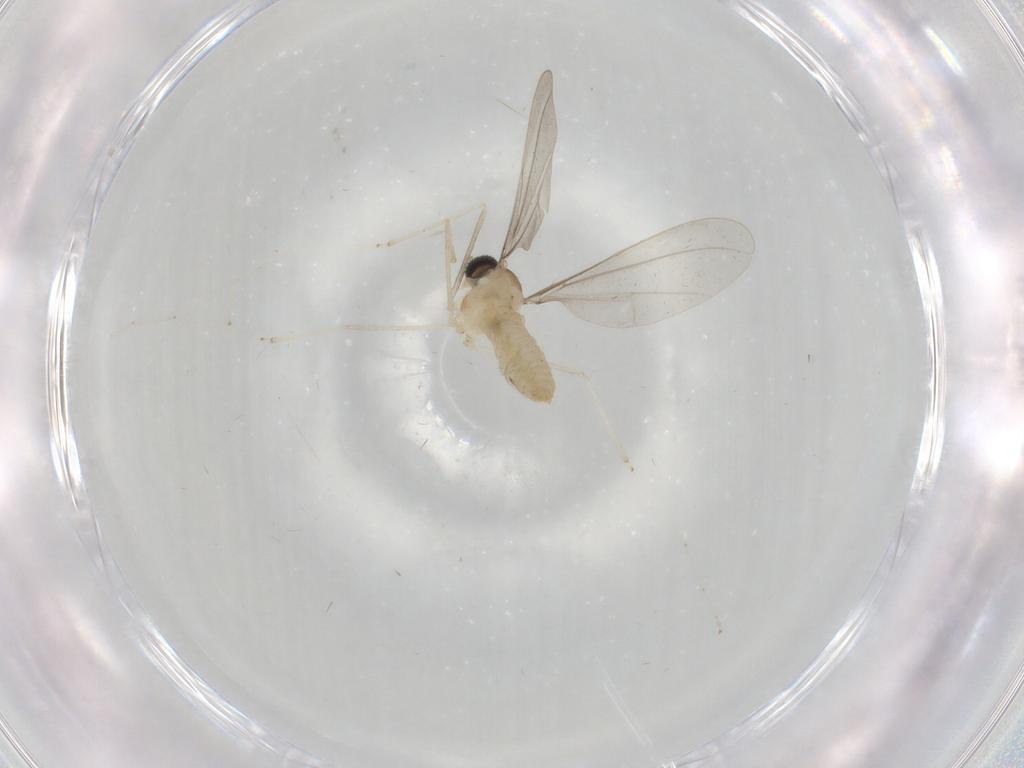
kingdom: Animalia
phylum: Arthropoda
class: Insecta
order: Diptera
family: Cecidomyiidae
